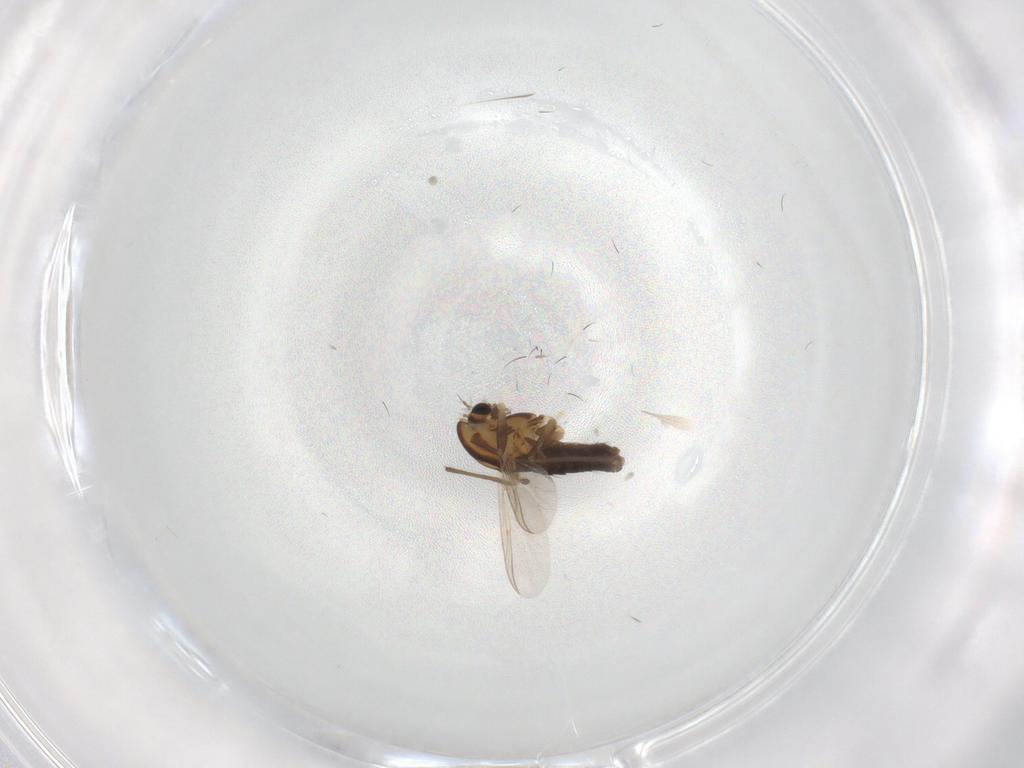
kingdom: Animalia
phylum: Arthropoda
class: Insecta
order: Diptera
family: Chironomidae
